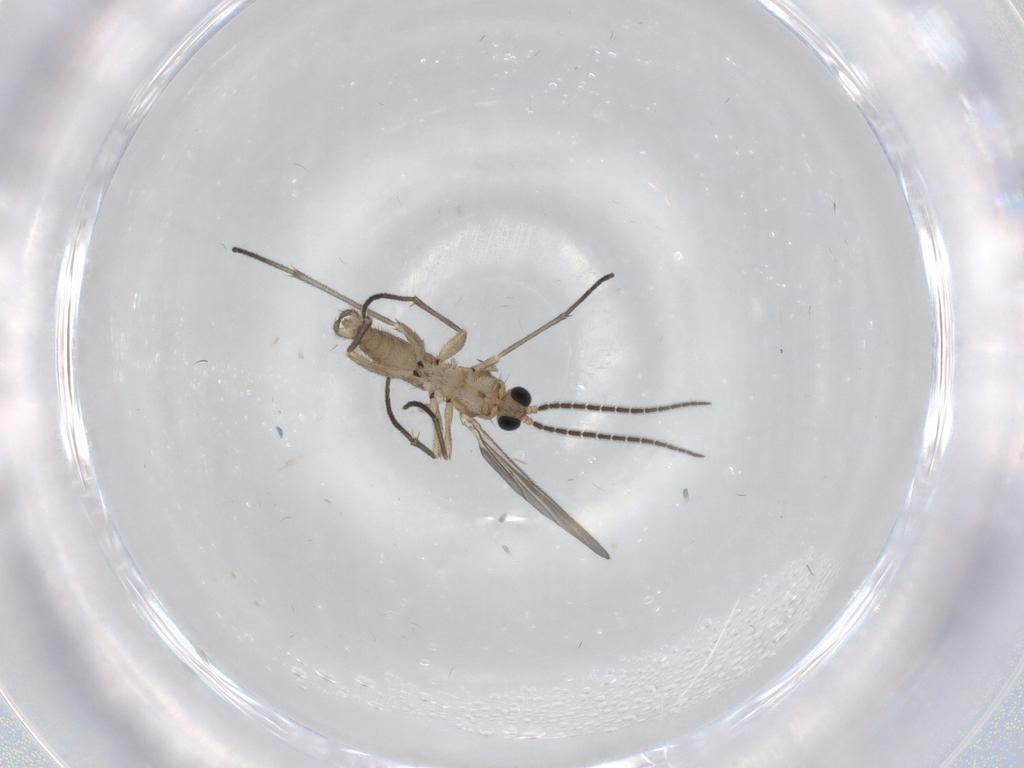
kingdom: Animalia
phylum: Arthropoda
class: Insecta
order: Diptera
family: Sciaridae
